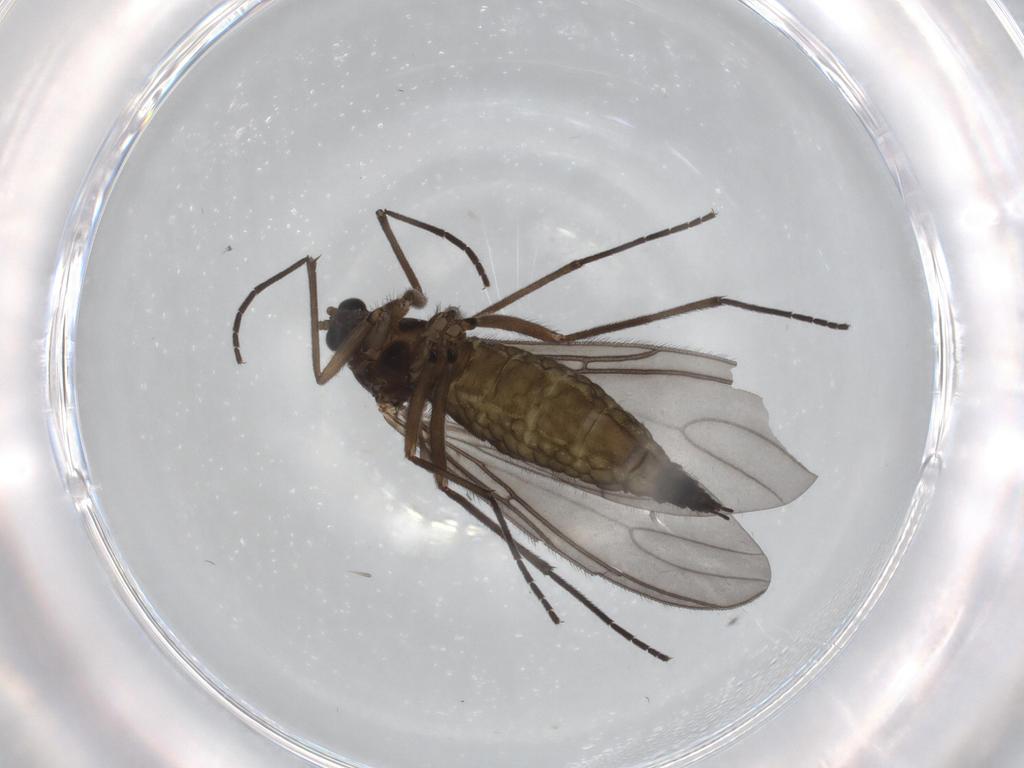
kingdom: Animalia
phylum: Arthropoda
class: Insecta
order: Diptera
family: Sciaridae
